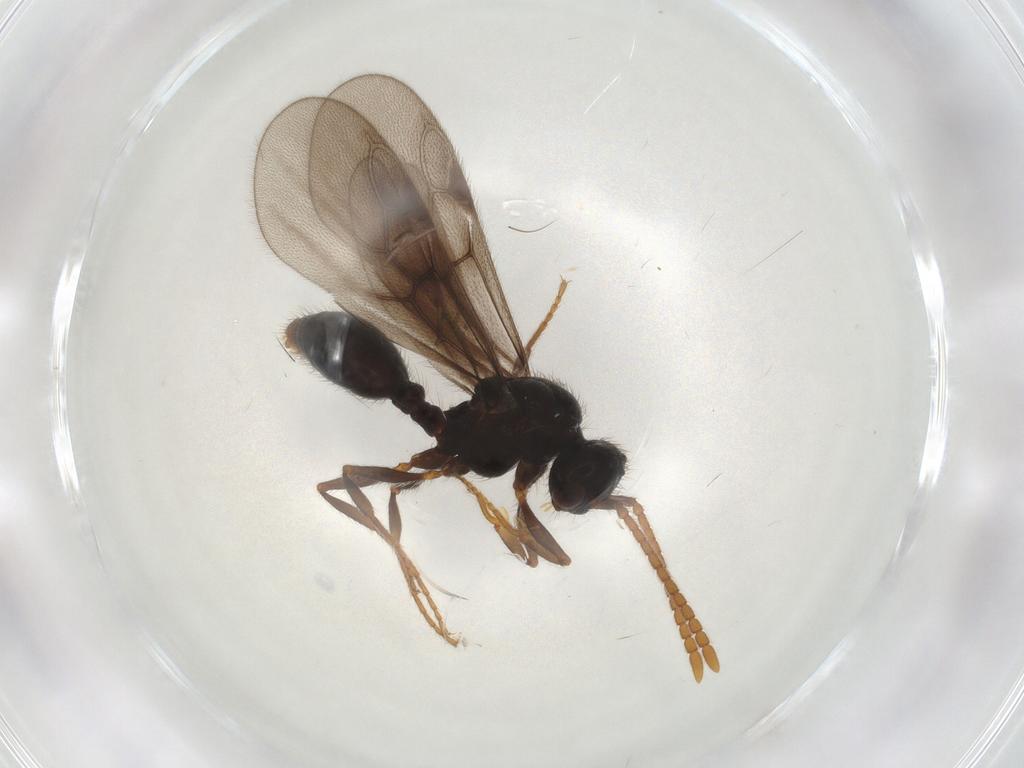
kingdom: Animalia
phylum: Arthropoda
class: Insecta
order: Hymenoptera
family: Formicidae
